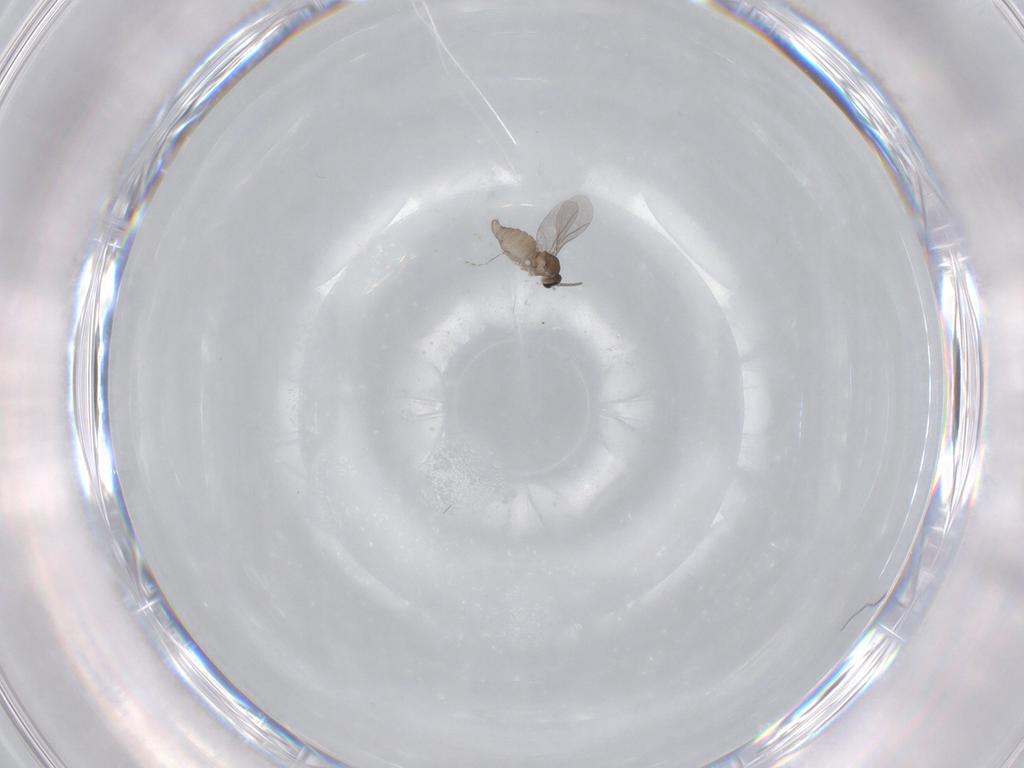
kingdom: Animalia
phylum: Arthropoda
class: Insecta
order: Diptera
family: Cecidomyiidae
